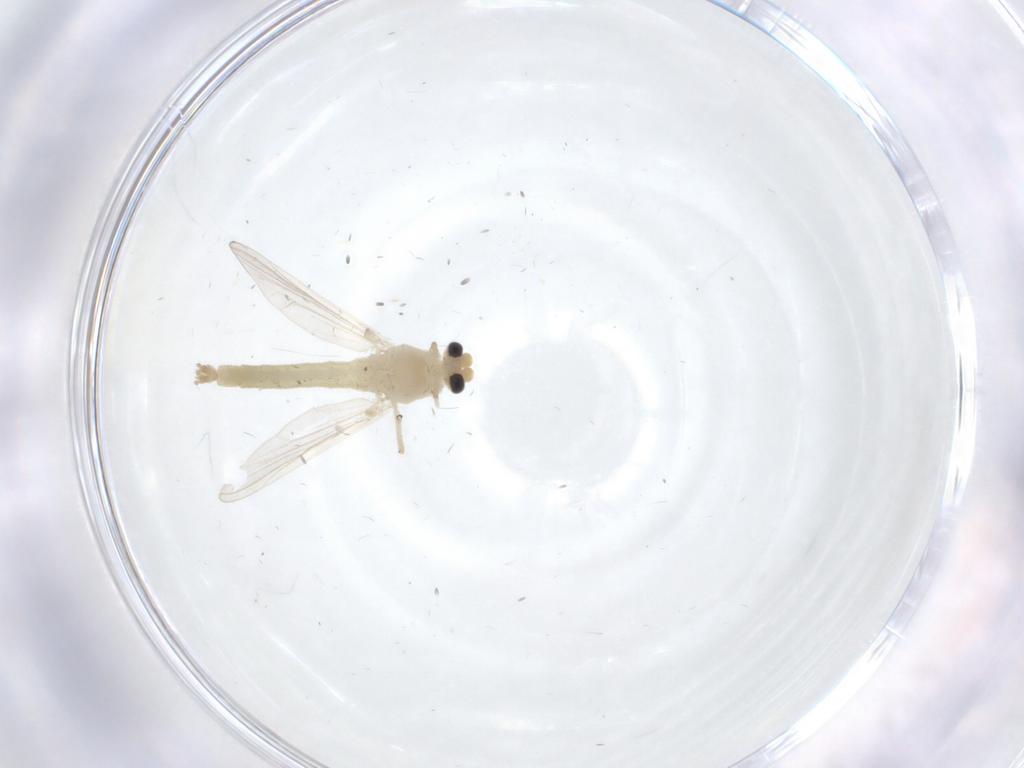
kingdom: Animalia
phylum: Arthropoda
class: Insecta
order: Diptera
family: Chironomidae
